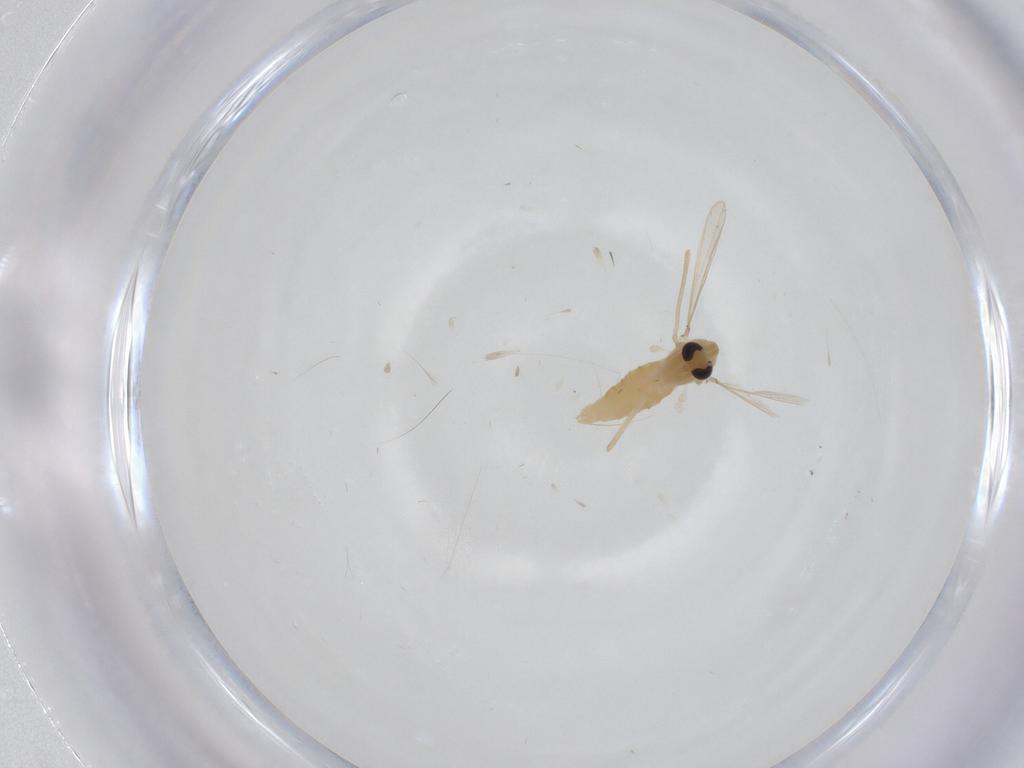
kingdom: Animalia
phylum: Arthropoda
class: Insecta
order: Diptera
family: Chironomidae
